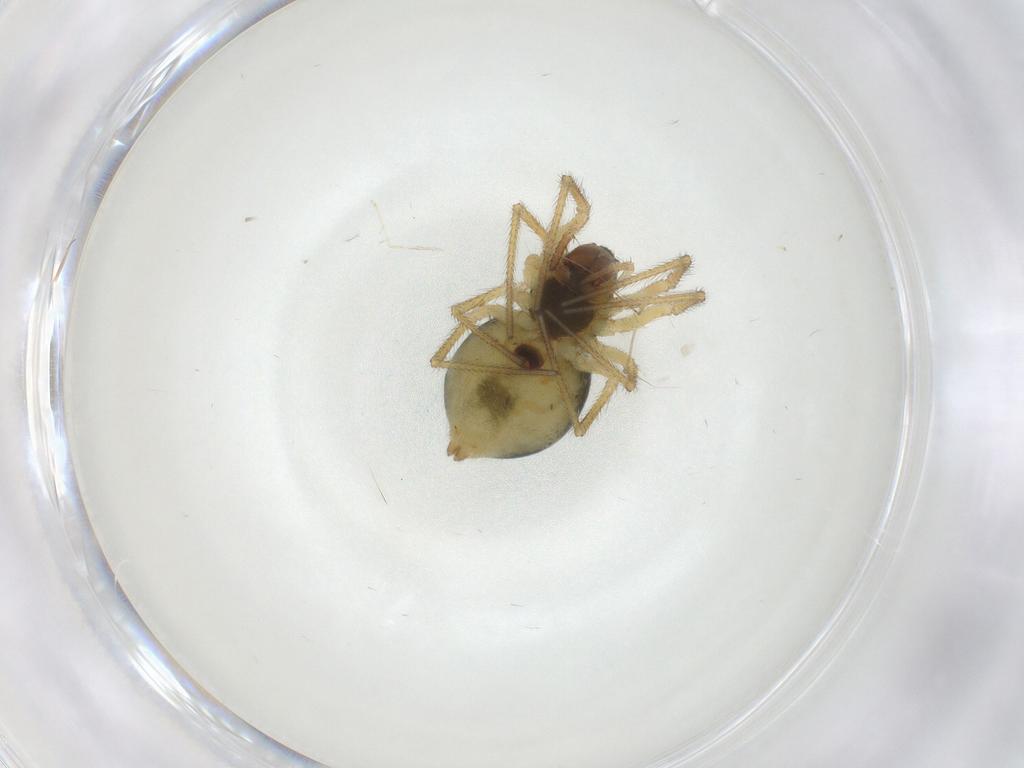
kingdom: Animalia
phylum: Arthropoda
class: Arachnida
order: Araneae
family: Linyphiidae
